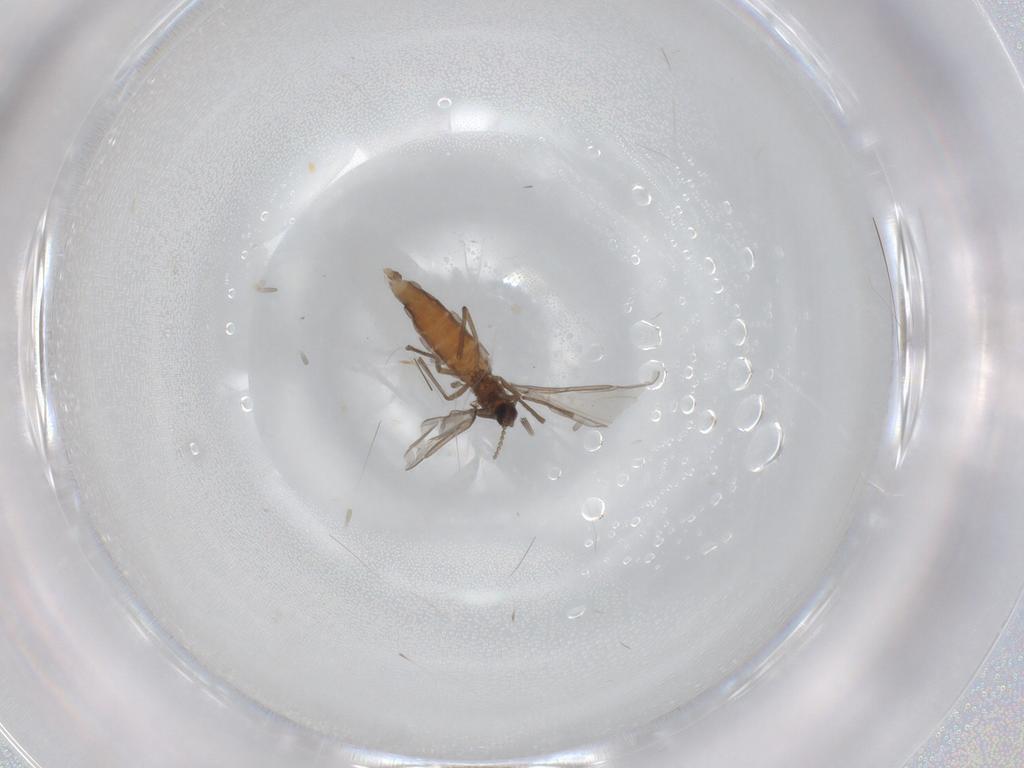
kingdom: Animalia
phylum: Arthropoda
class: Insecta
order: Diptera
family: Cecidomyiidae
